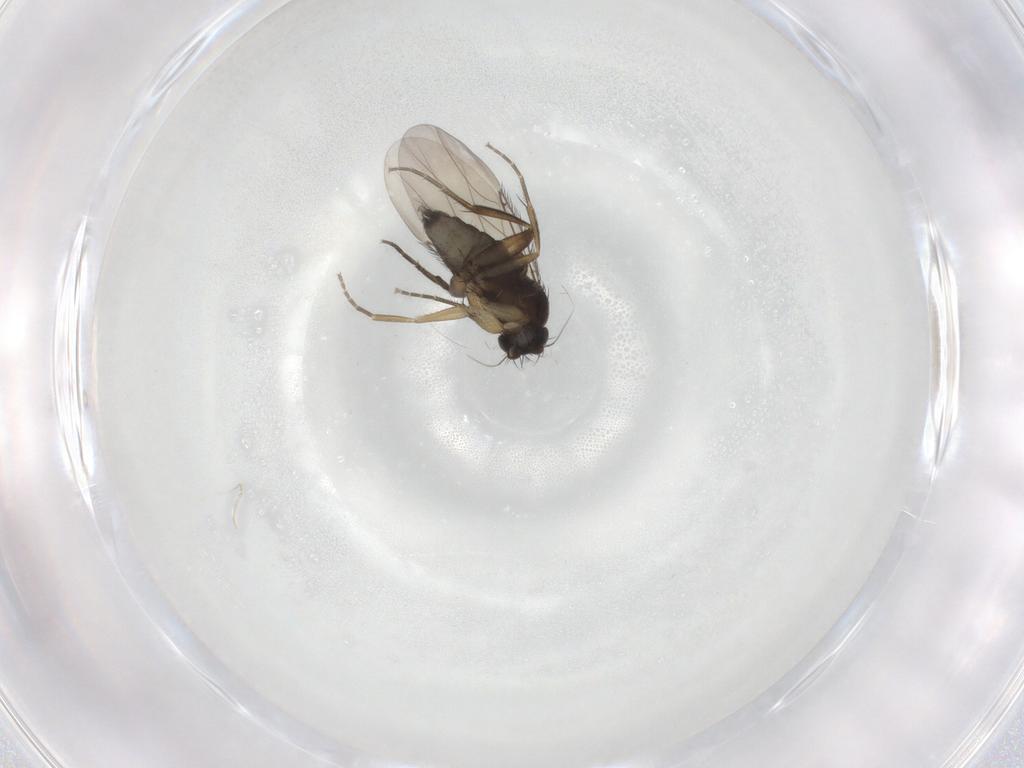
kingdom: Animalia
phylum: Arthropoda
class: Insecta
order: Diptera
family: Phoridae
